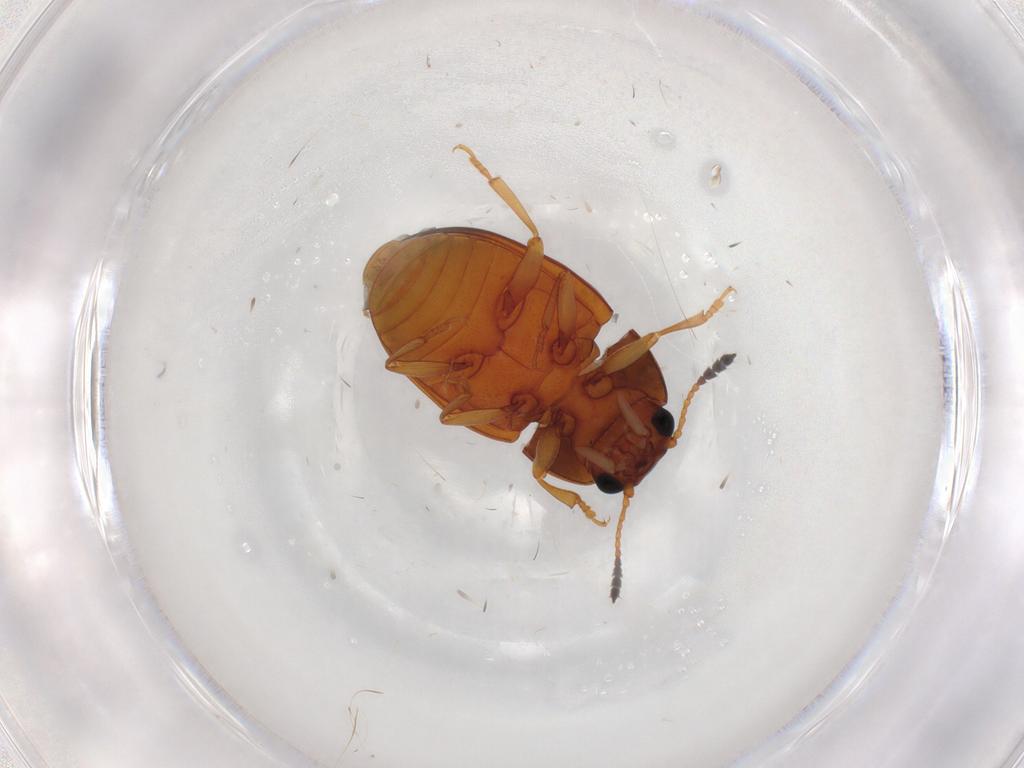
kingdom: Animalia
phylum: Arthropoda
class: Insecta
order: Coleoptera
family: Erotylidae
